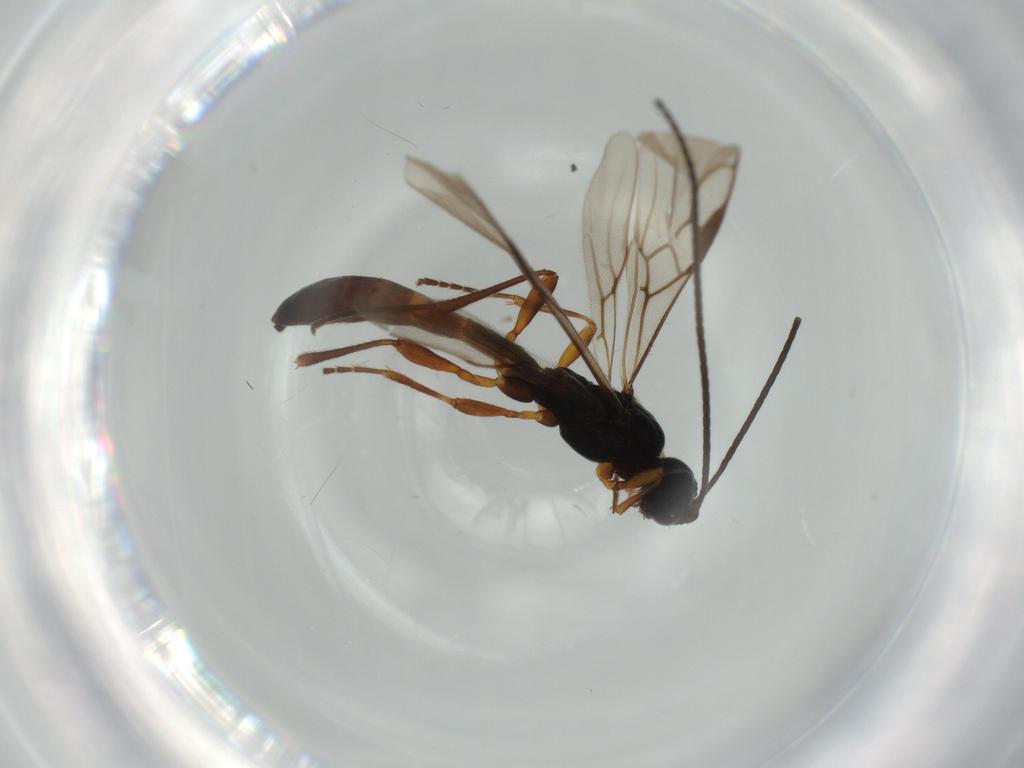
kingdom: Animalia
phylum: Arthropoda
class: Insecta
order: Hymenoptera
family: Braconidae
